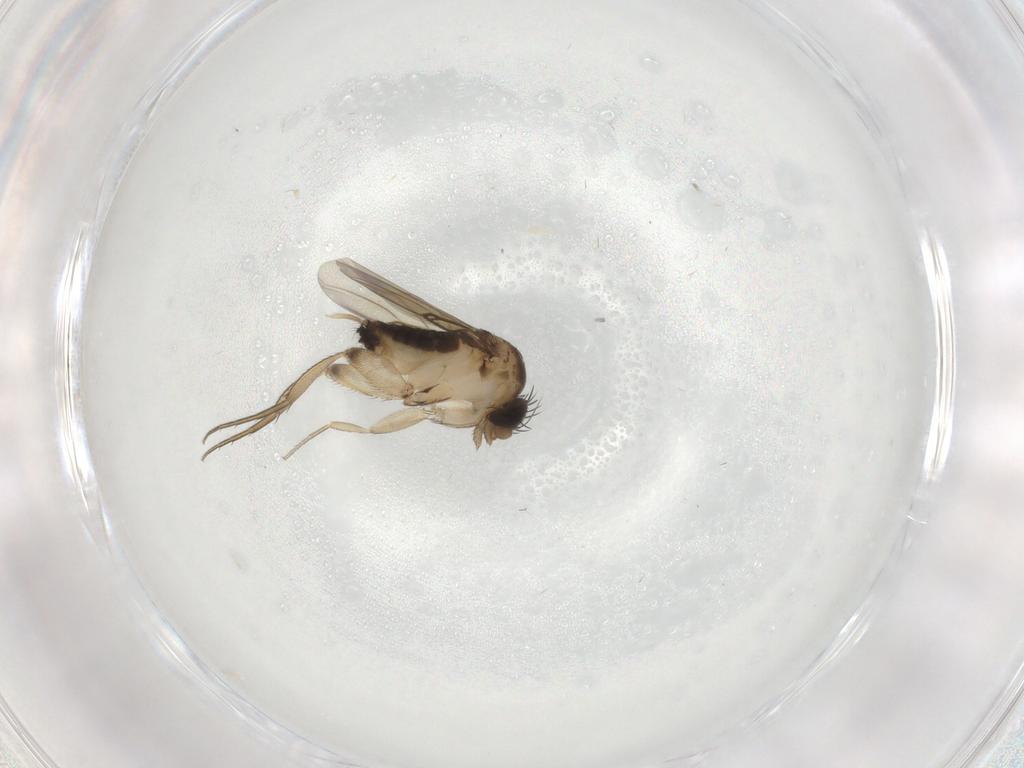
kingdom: Animalia
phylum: Arthropoda
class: Insecta
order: Diptera
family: Phoridae
